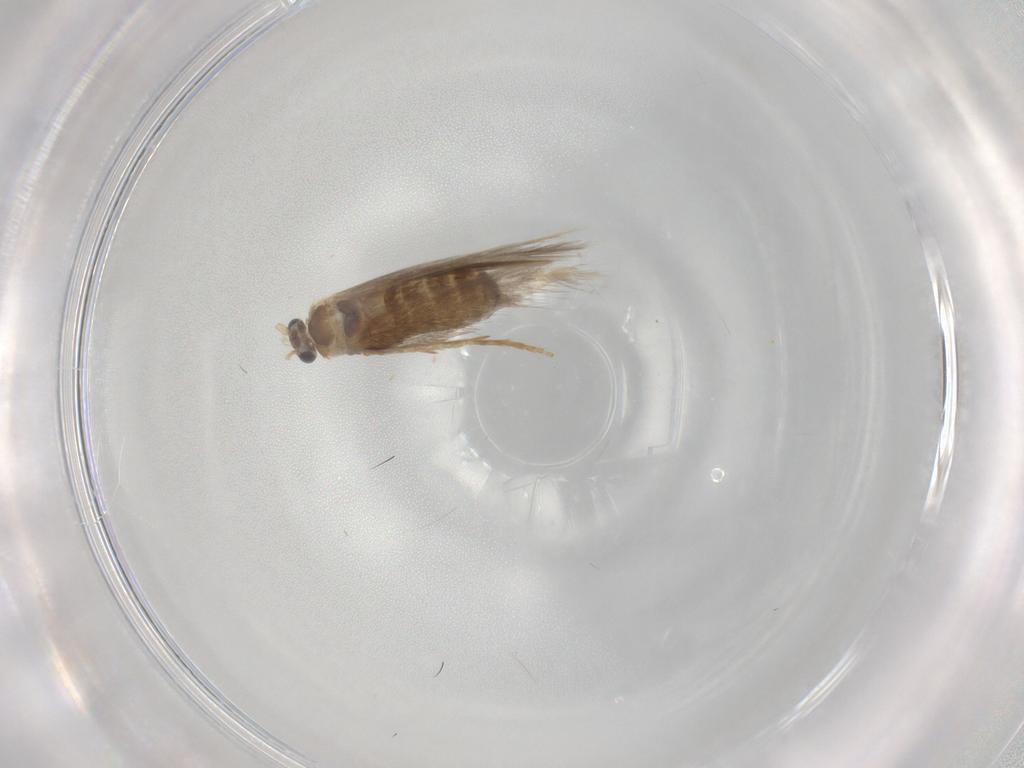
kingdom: Animalia
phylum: Arthropoda
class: Insecta
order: Lepidoptera
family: Nepticulidae
